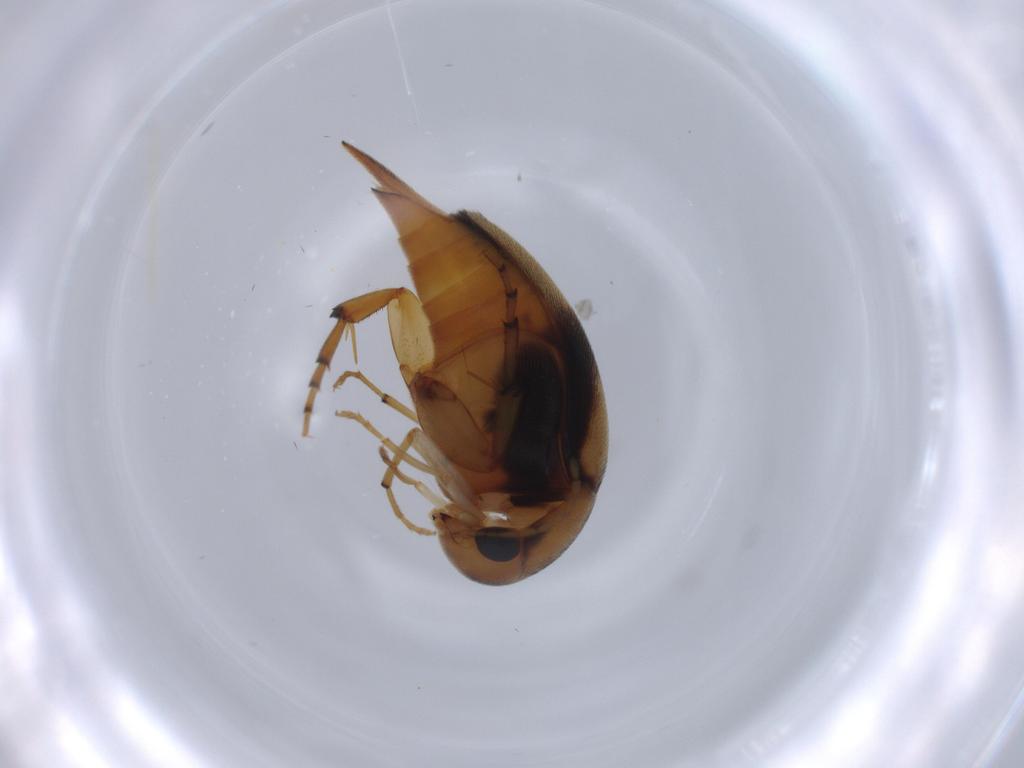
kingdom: Animalia
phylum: Arthropoda
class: Insecta
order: Coleoptera
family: Mordellidae
